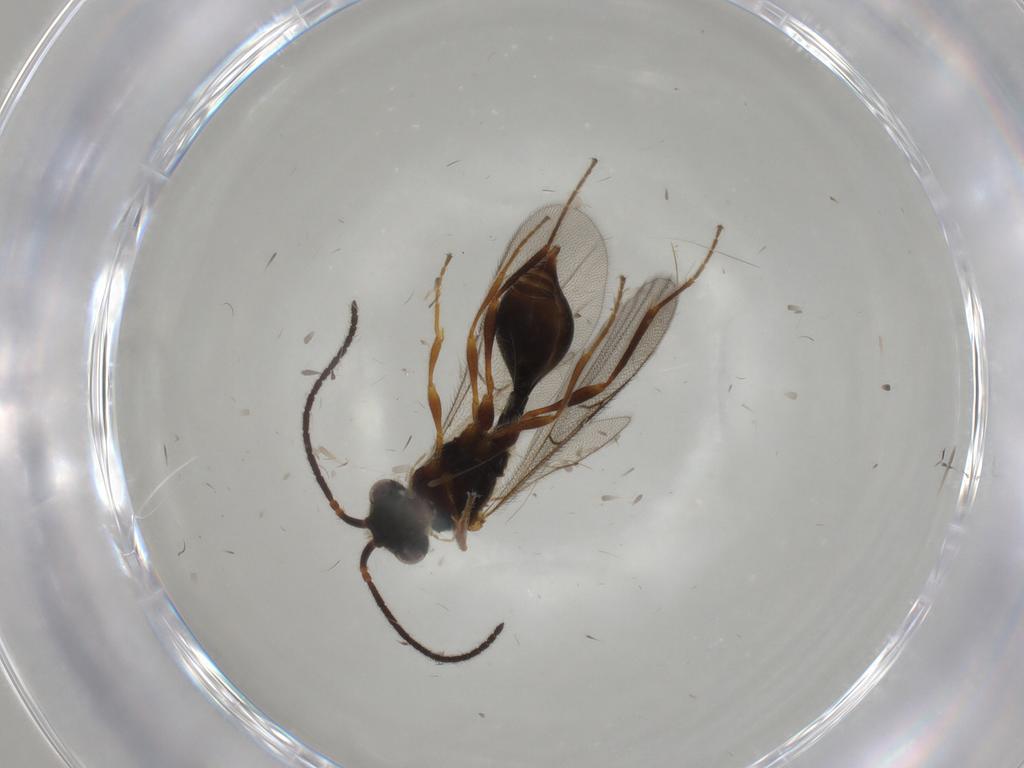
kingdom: Animalia
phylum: Arthropoda
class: Insecta
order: Hymenoptera
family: Diapriidae
